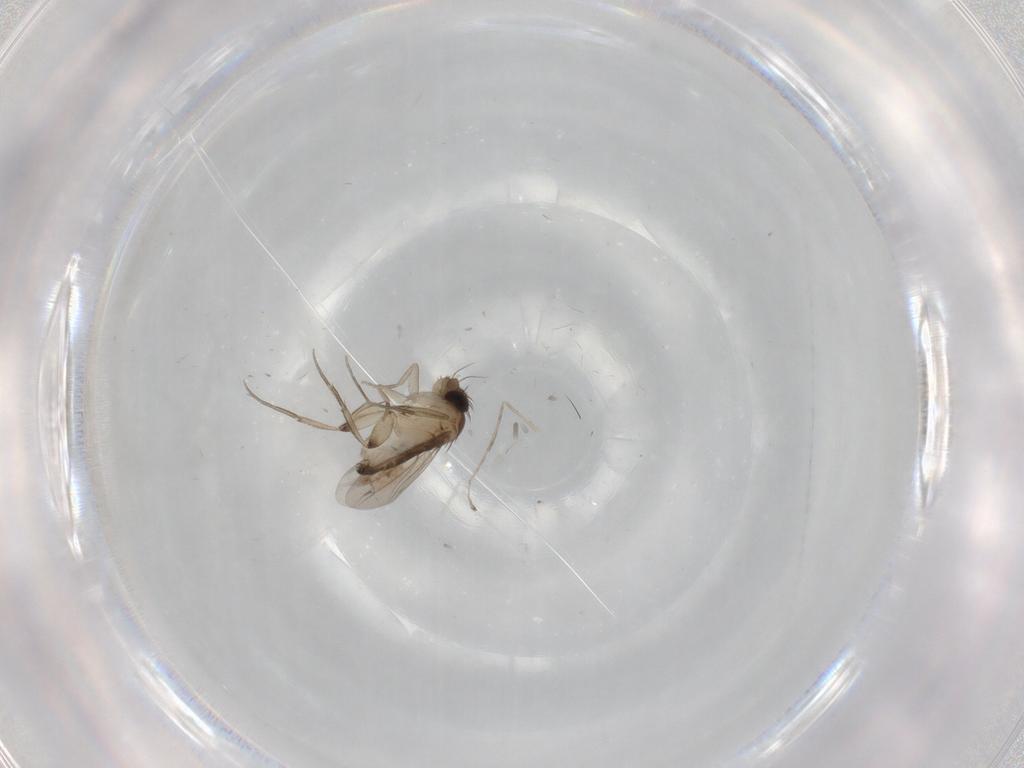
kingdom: Animalia
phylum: Arthropoda
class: Insecta
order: Diptera
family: Phoridae
